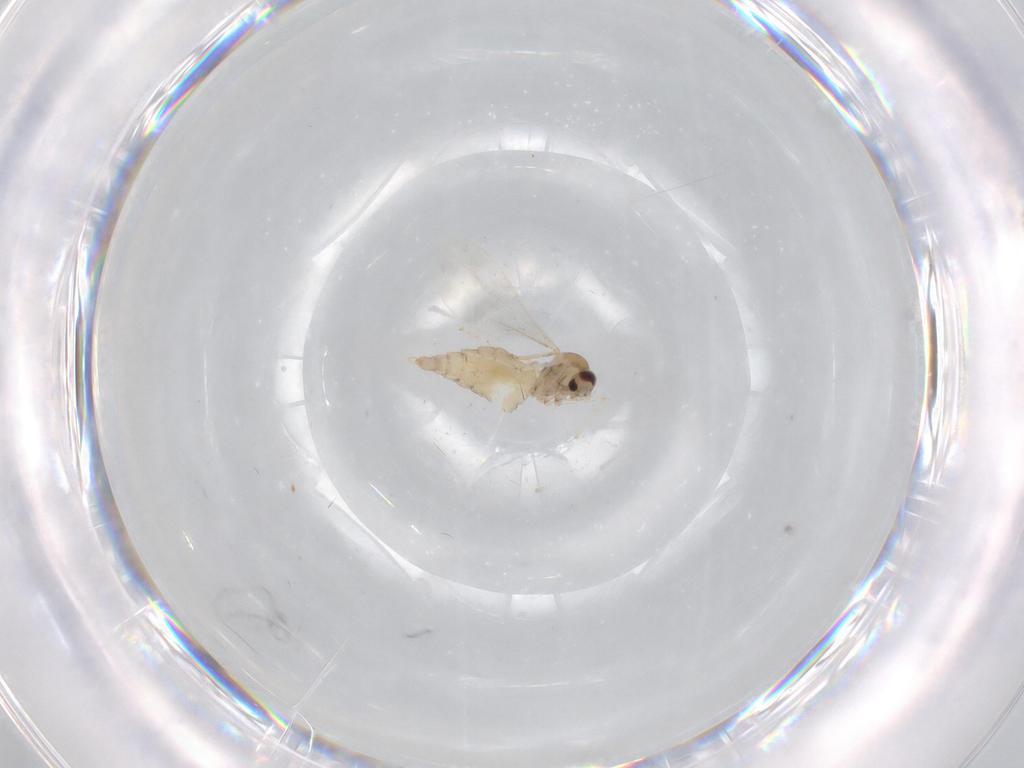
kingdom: Animalia
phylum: Arthropoda
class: Insecta
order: Diptera
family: Cecidomyiidae
